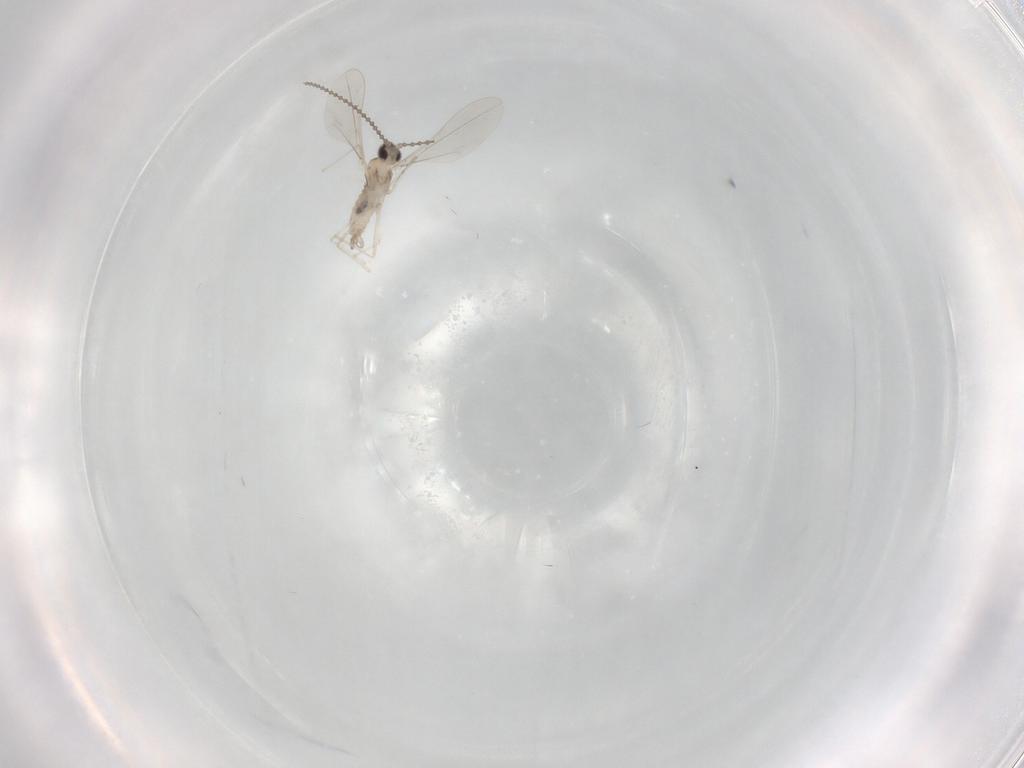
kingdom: Animalia
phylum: Arthropoda
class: Insecta
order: Diptera
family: Cecidomyiidae
